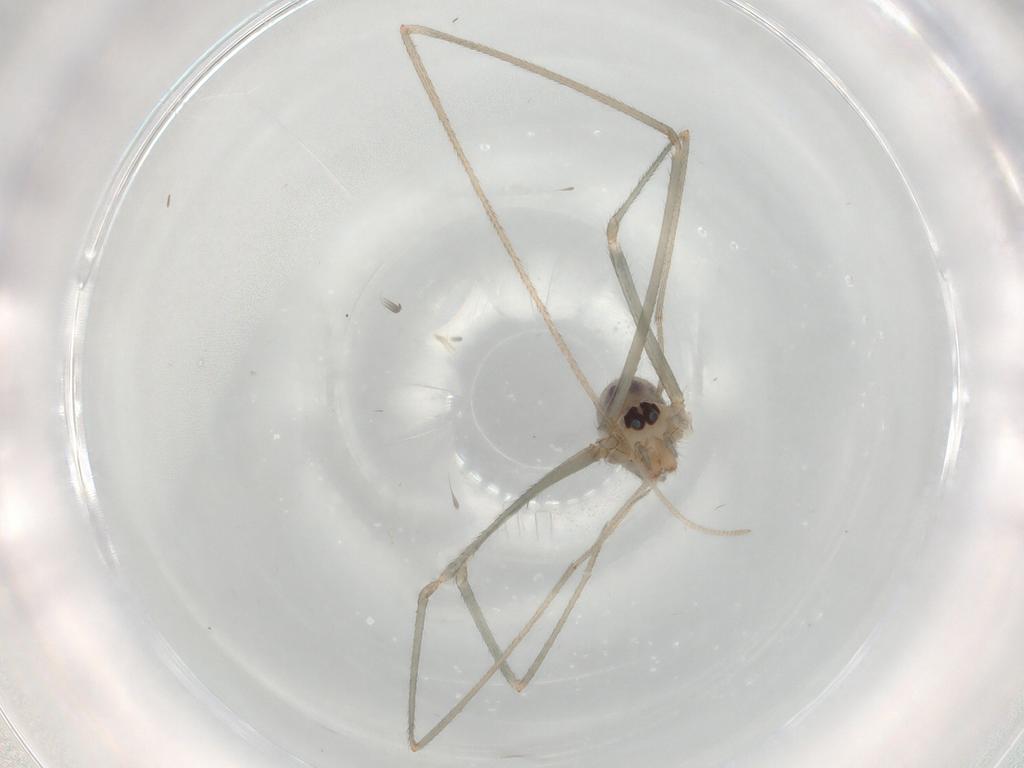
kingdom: Animalia
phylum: Arthropoda
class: Arachnida
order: Araneae
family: Pholcidae
